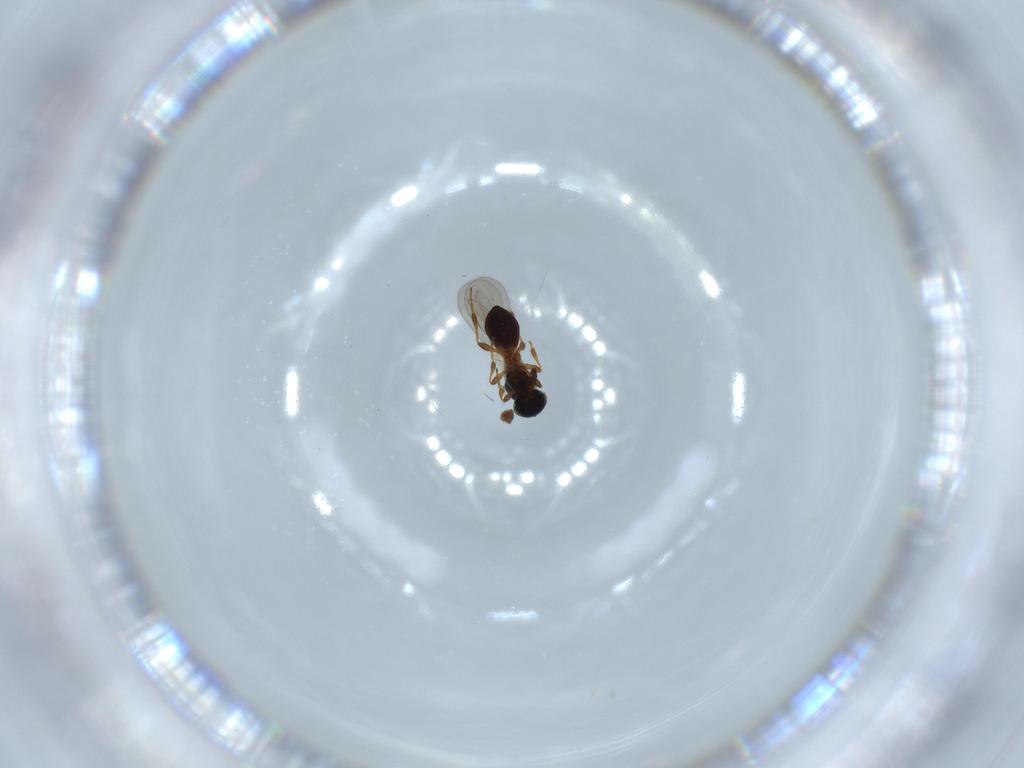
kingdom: Animalia
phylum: Arthropoda
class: Insecta
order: Hymenoptera
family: Platygastridae
